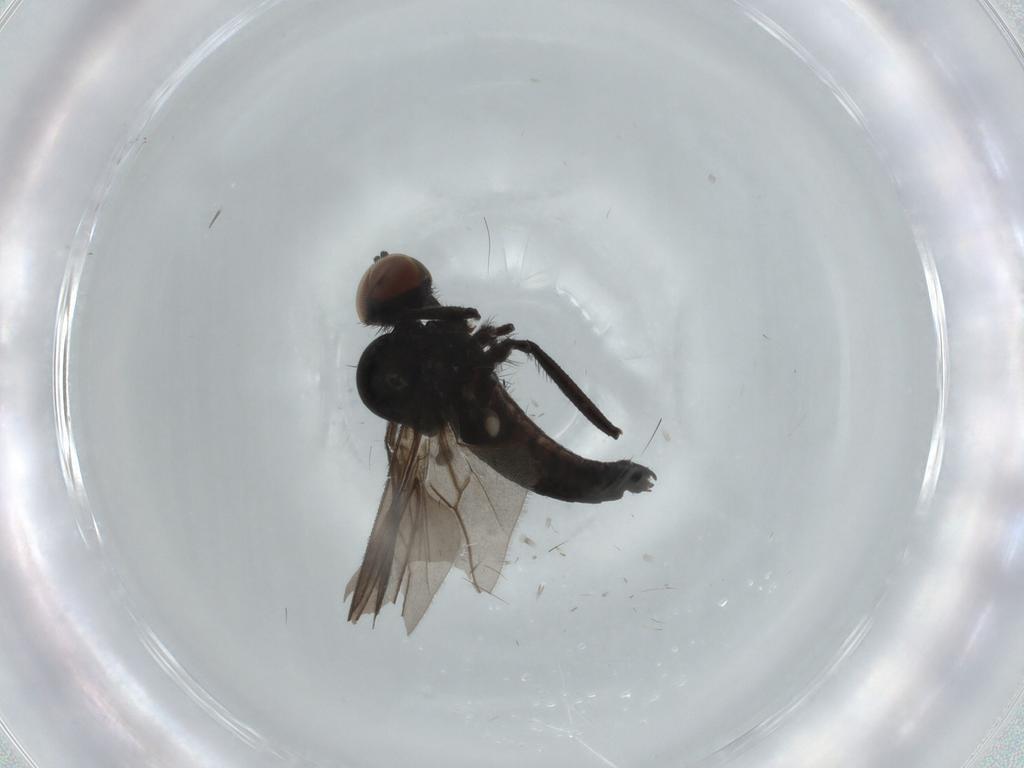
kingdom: Animalia
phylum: Arthropoda
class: Insecta
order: Diptera
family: Hybotidae
